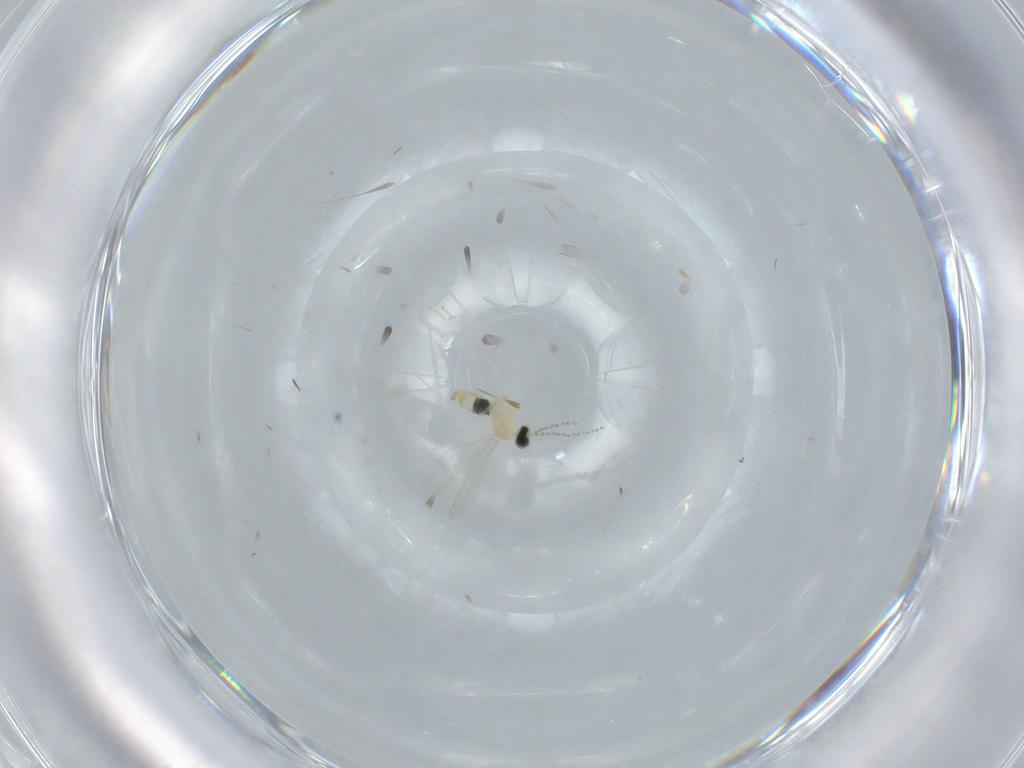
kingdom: Animalia
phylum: Arthropoda
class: Insecta
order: Diptera
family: Cecidomyiidae
